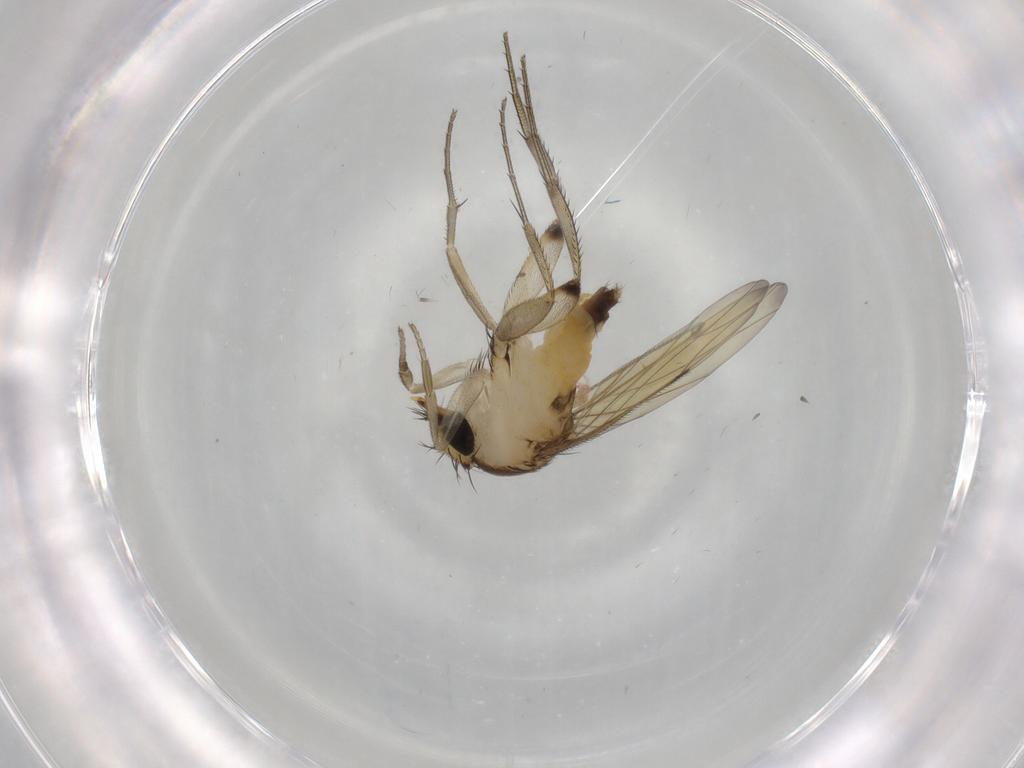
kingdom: Animalia
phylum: Arthropoda
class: Insecta
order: Diptera
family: Phoridae
